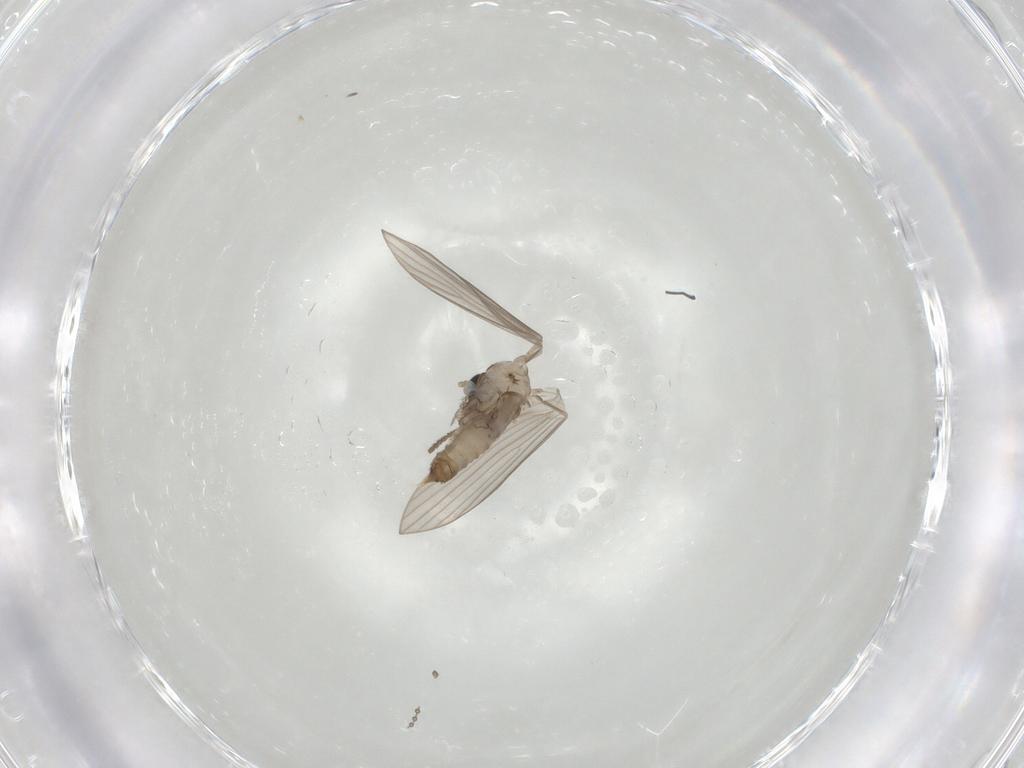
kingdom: Animalia
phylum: Arthropoda
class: Insecta
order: Diptera
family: Psychodidae
